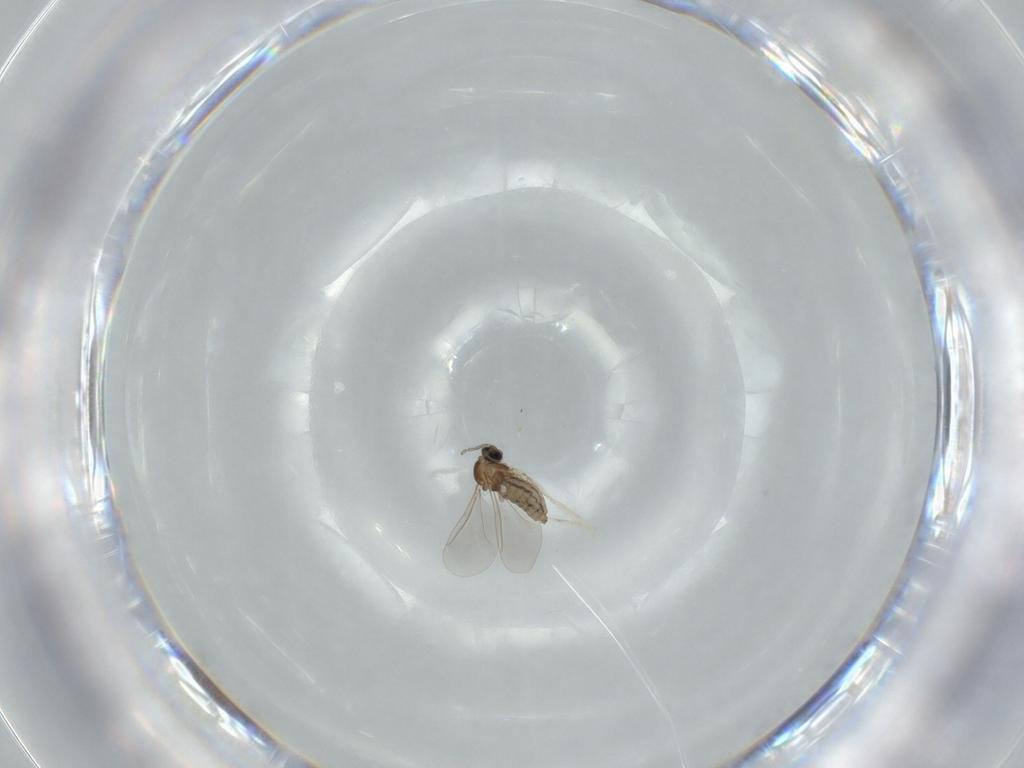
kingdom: Animalia
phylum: Arthropoda
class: Insecta
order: Diptera
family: Cecidomyiidae
